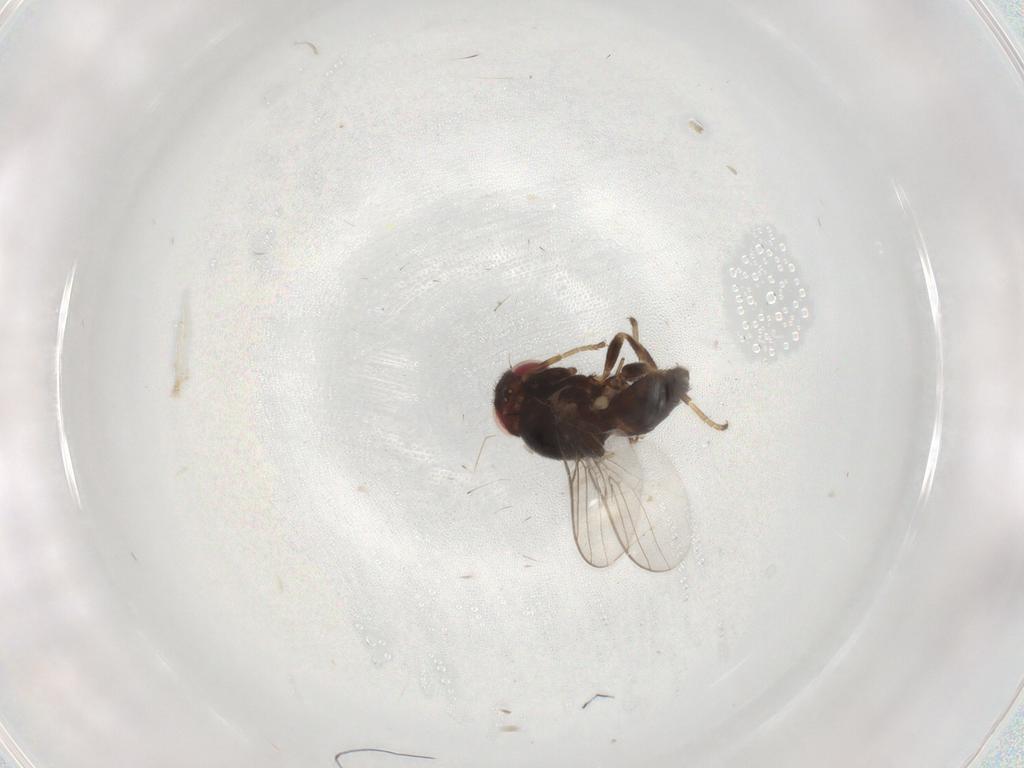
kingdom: Animalia
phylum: Arthropoda
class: Insecta
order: Diptera
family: Chloropidae
